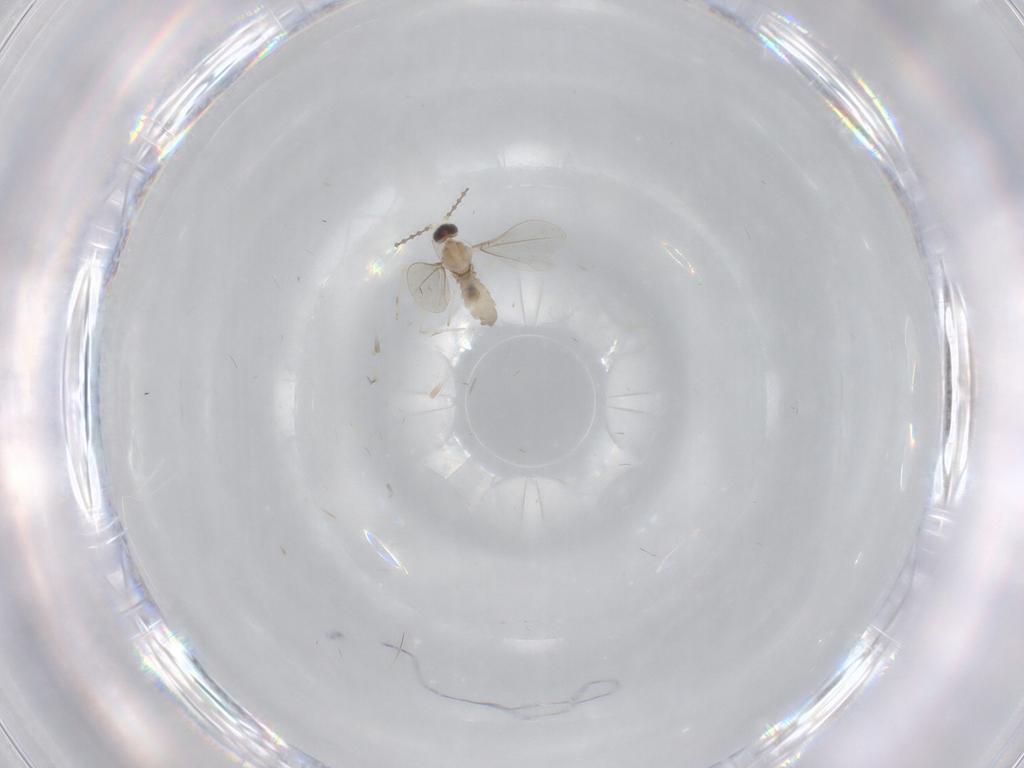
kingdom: Animalia
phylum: Arthropoda
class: Insecta
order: Diptera
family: Cecidomyiidae
